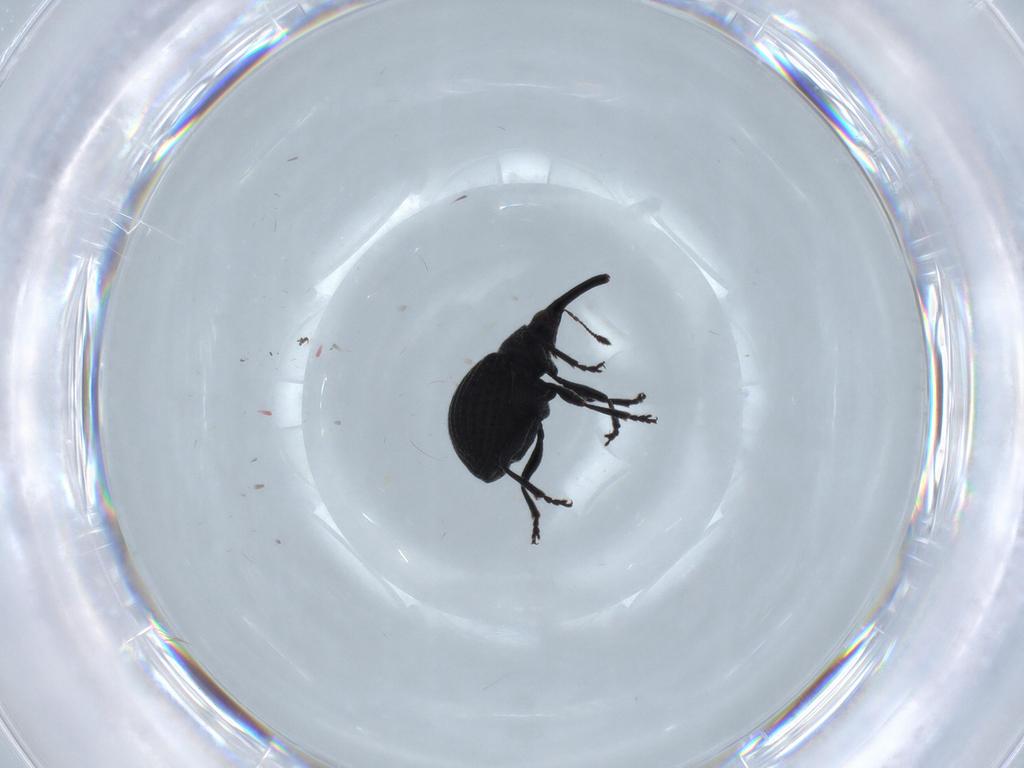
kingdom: Animalia
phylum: Arthropoda
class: Insecta
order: Coleoptera
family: Brentidae
